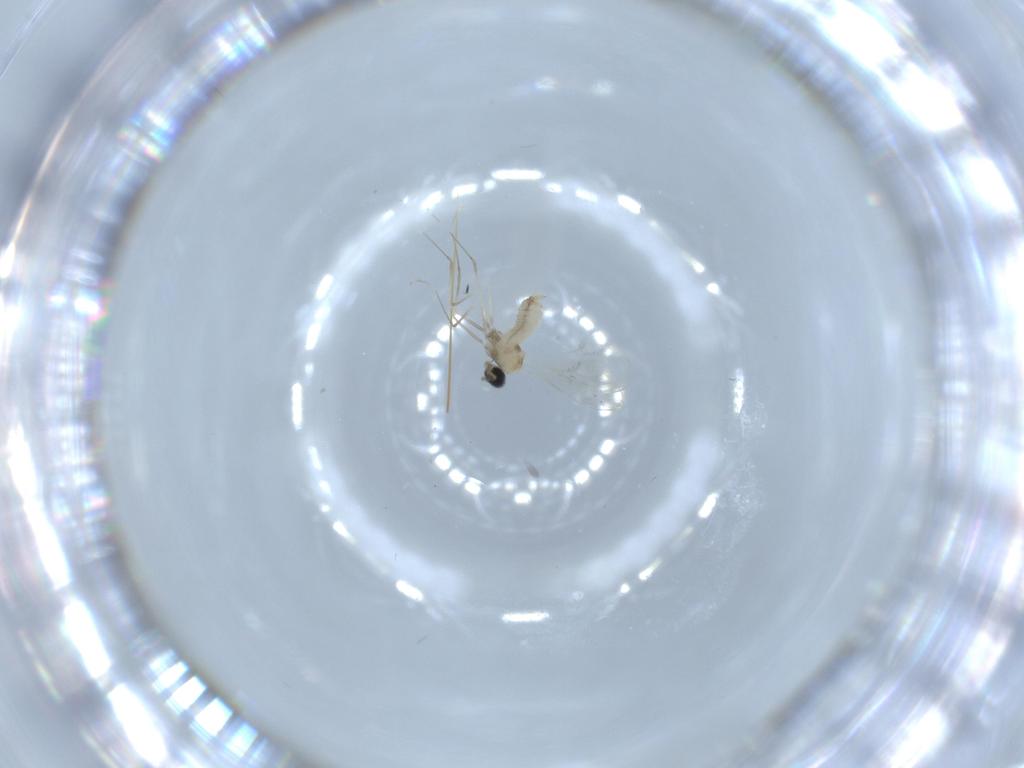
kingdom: Animalia
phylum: Arthropoda
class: Insecta
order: Diptera
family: Cecidomyiidae
